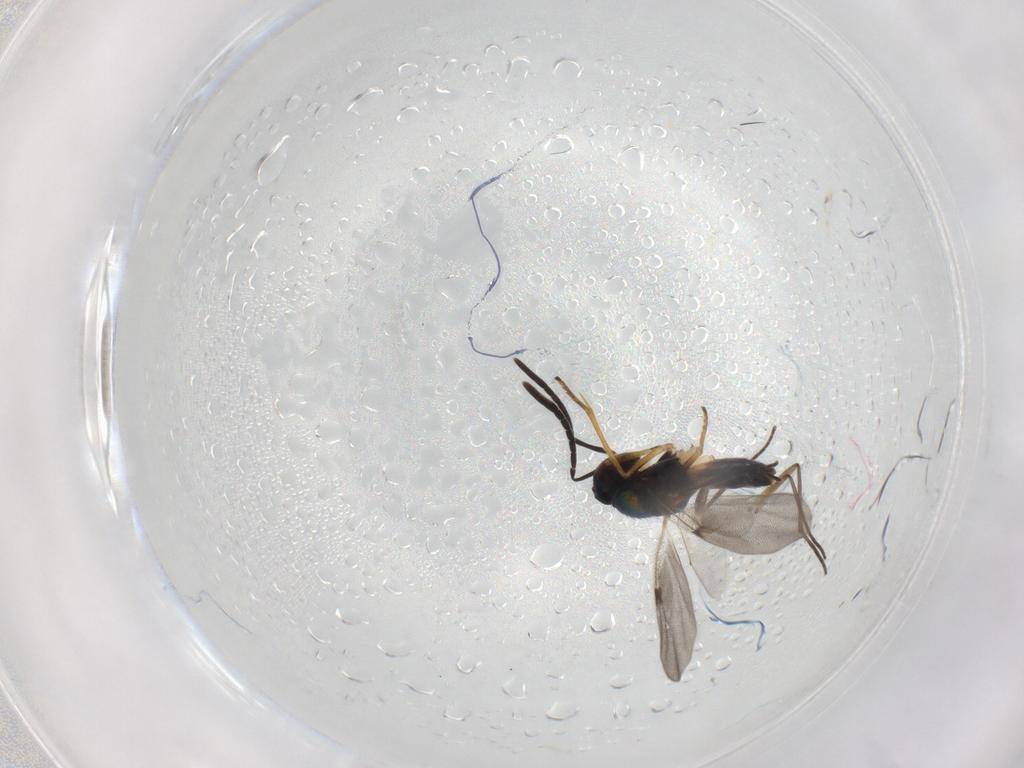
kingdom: Animalia
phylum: Arthropoda
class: Insecta
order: Hymenoptera
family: Encyrtidae
